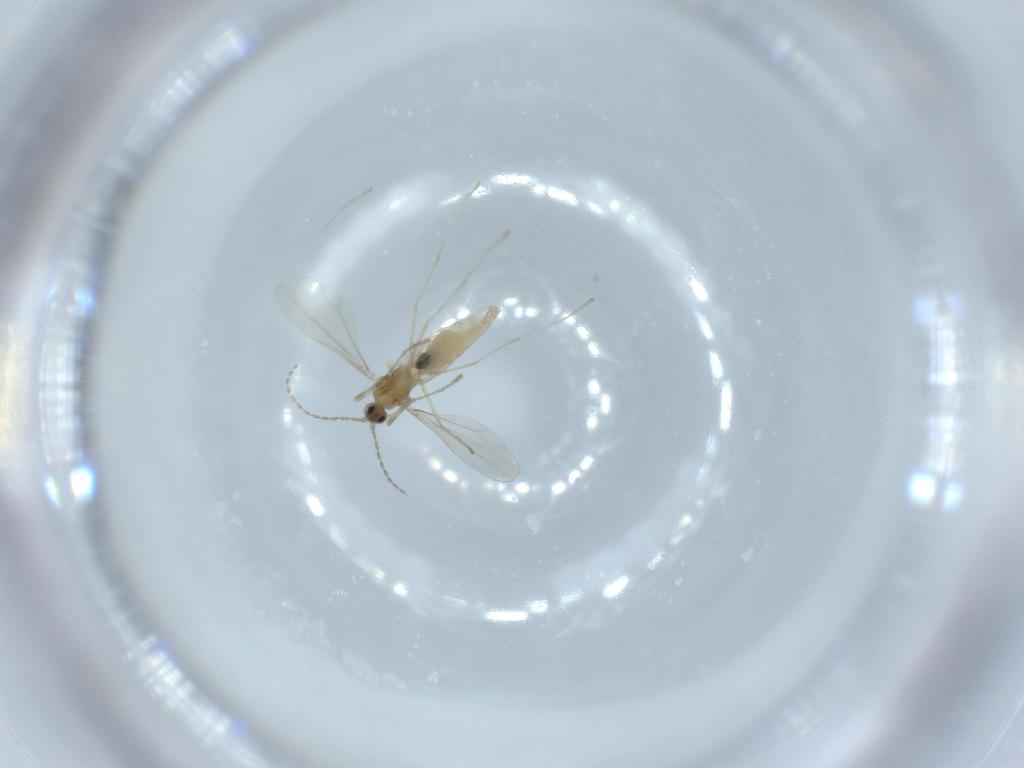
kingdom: Animalia
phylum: Arthropoda
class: Insecta
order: Diptera
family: Cecidomyiidae
